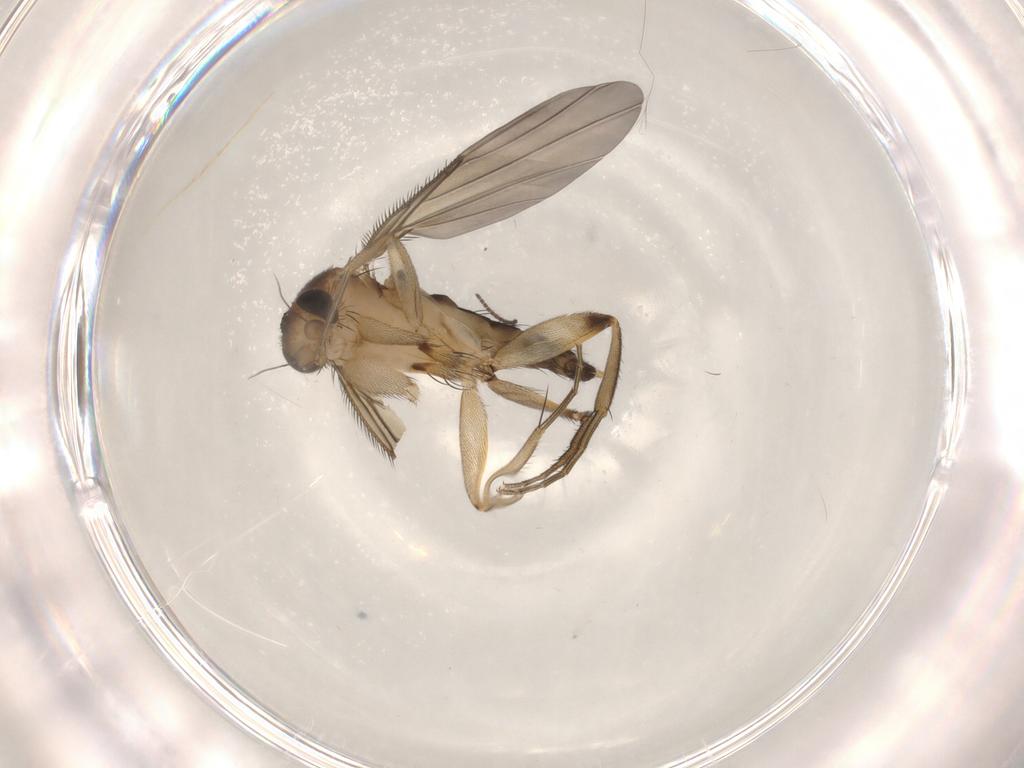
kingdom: Animalia
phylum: Arthropoda
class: Insecta
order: Diptera
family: Phoridae
